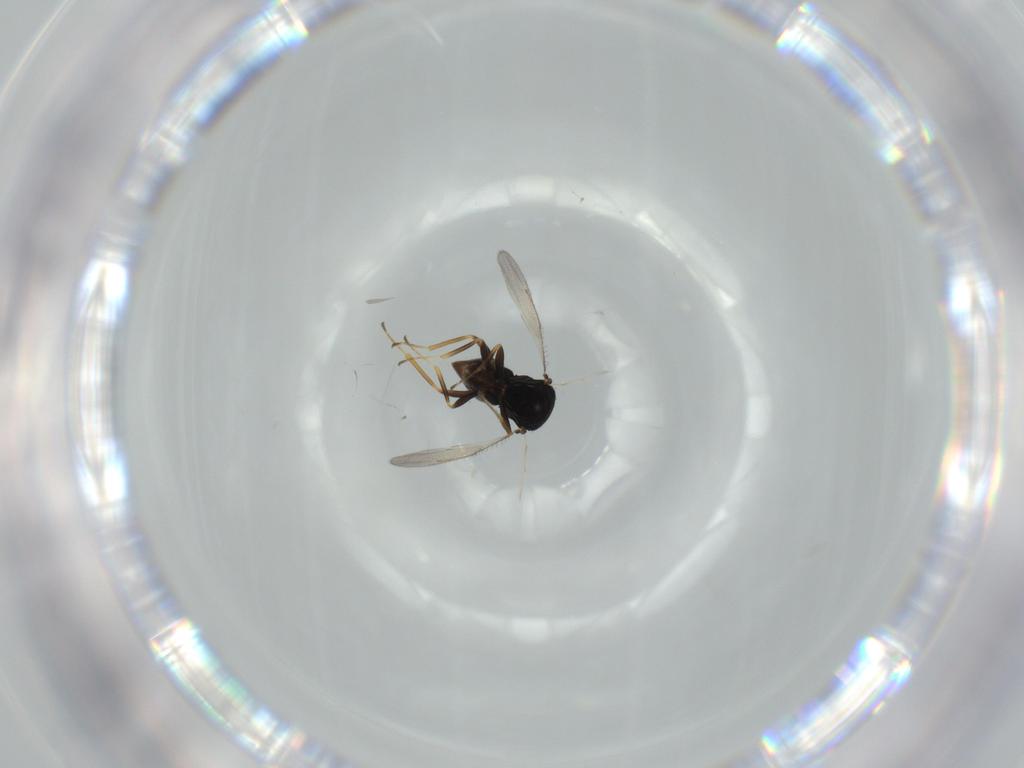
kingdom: Animalia
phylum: Arthropoda
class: Insecta
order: Hymenoptera
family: Pteromalidae
